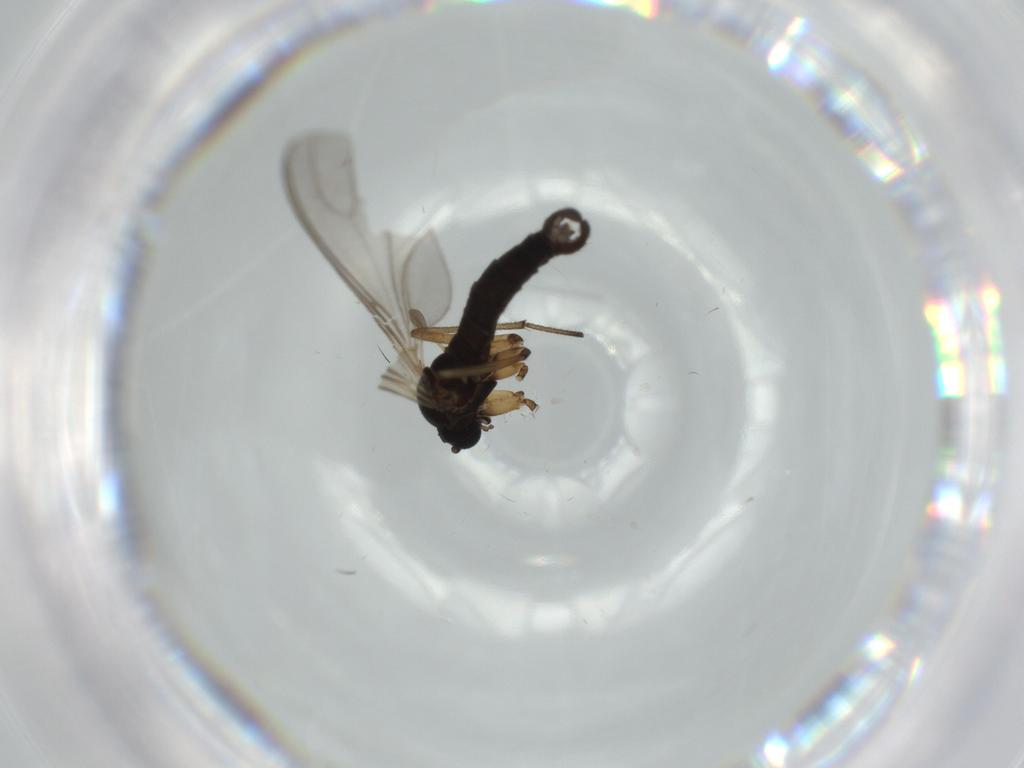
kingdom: Animalia
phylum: Arthropoda
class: Insecta
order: Diptera
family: Sciaridae
